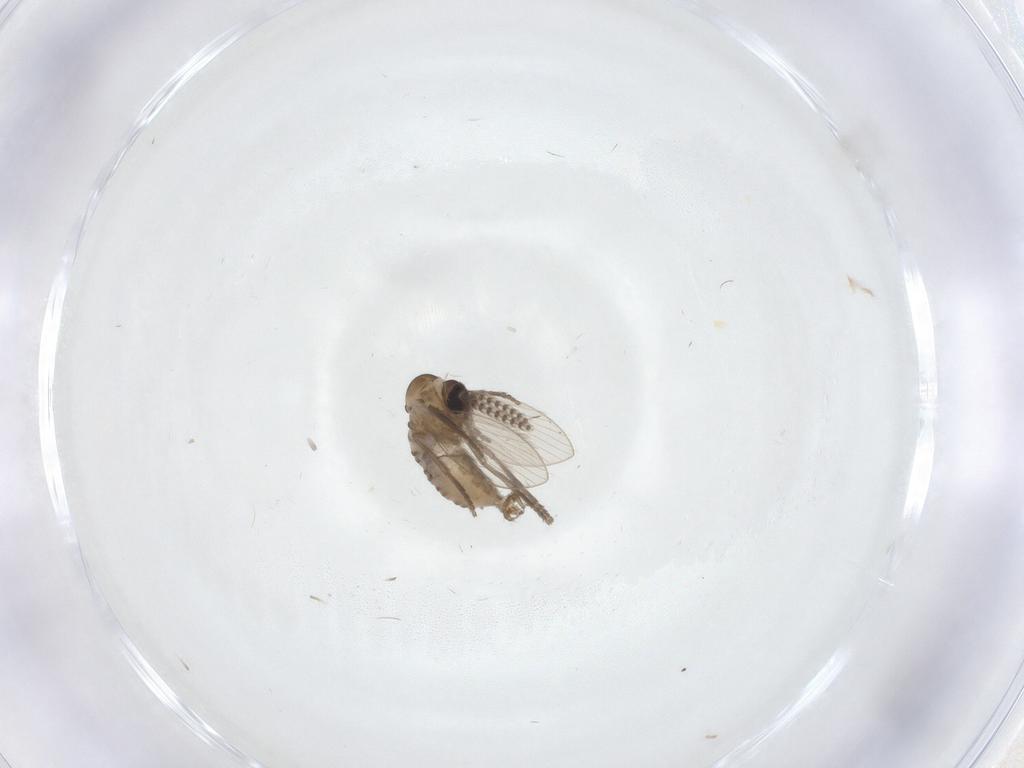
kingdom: Animalia
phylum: Arthropoda
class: Insecta
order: Diptera
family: Psychodidae
